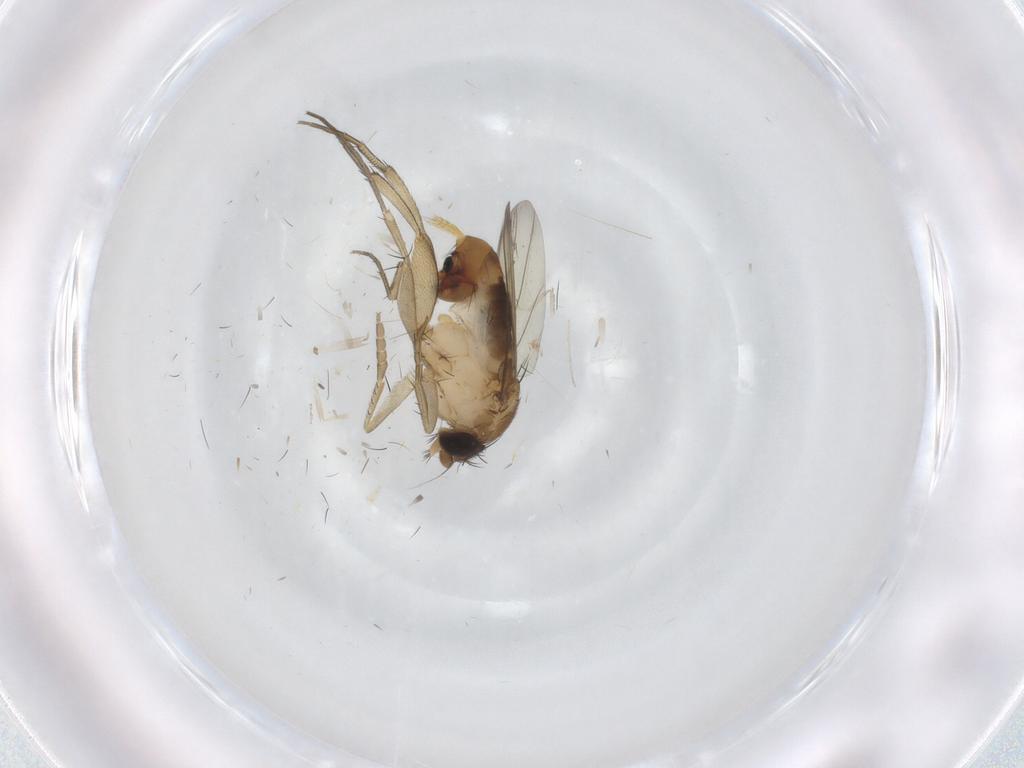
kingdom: Animalia
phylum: Arthropoda
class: Insecta
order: Diptera
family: Phoridae
